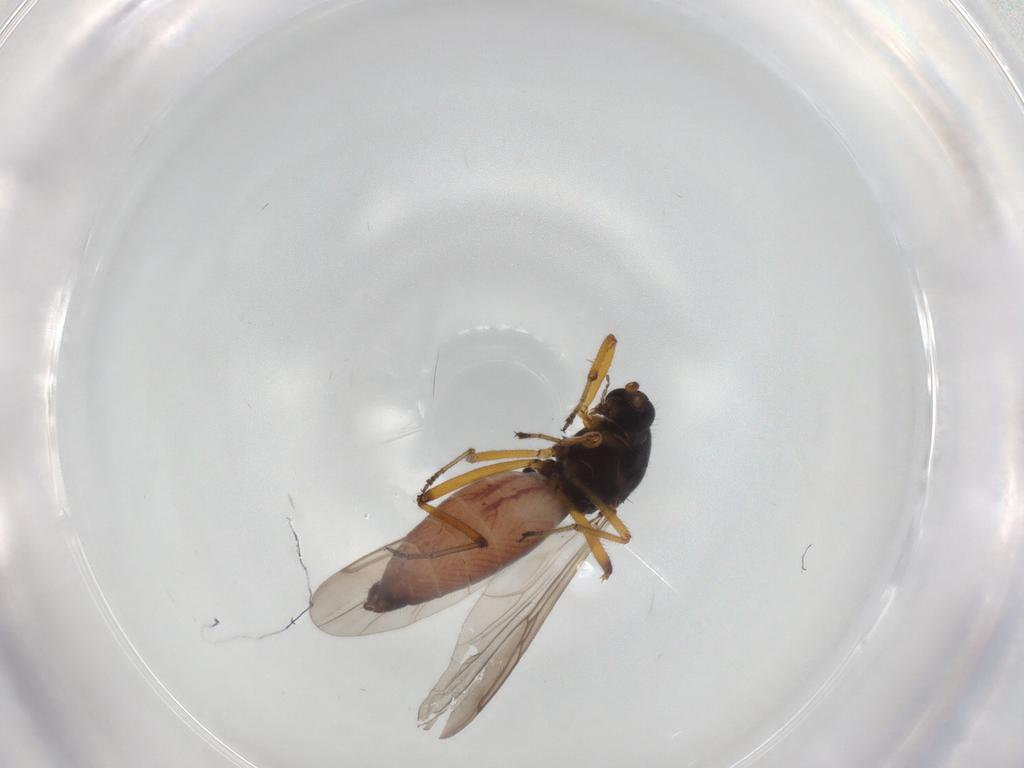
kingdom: Animalia
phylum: Arthropoda
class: Insecta
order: Diptera
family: Ceratopogonidae
